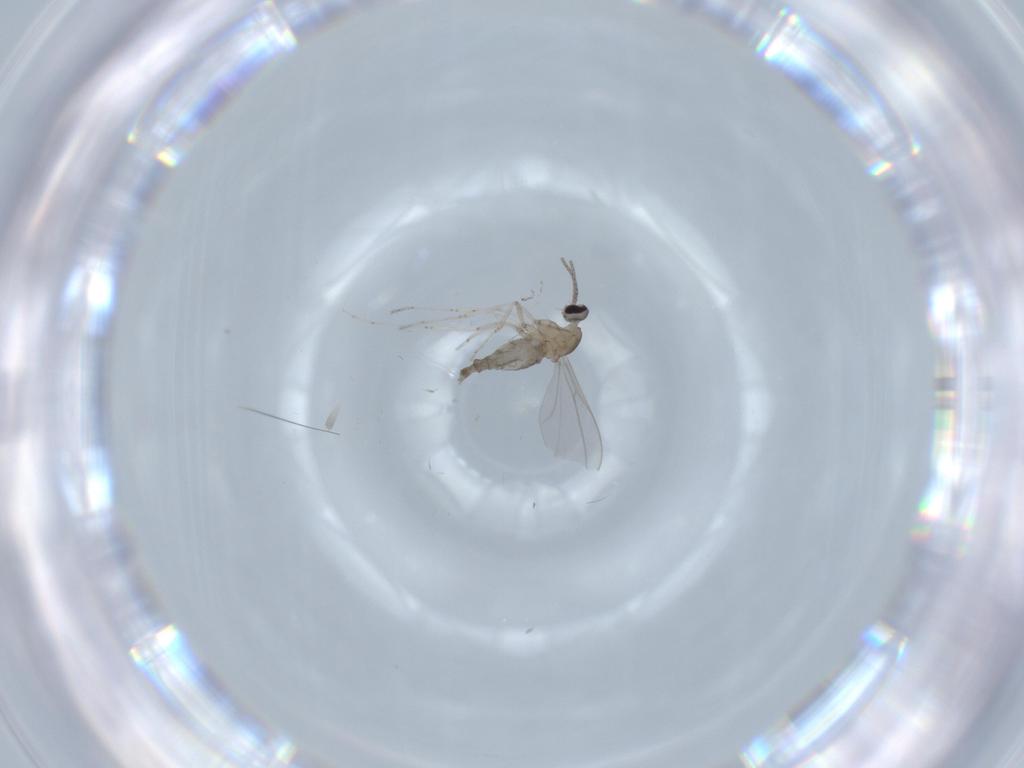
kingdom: Animalia
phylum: Arthropoda
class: Insecta
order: Diptera
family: Cecidomyiidae
